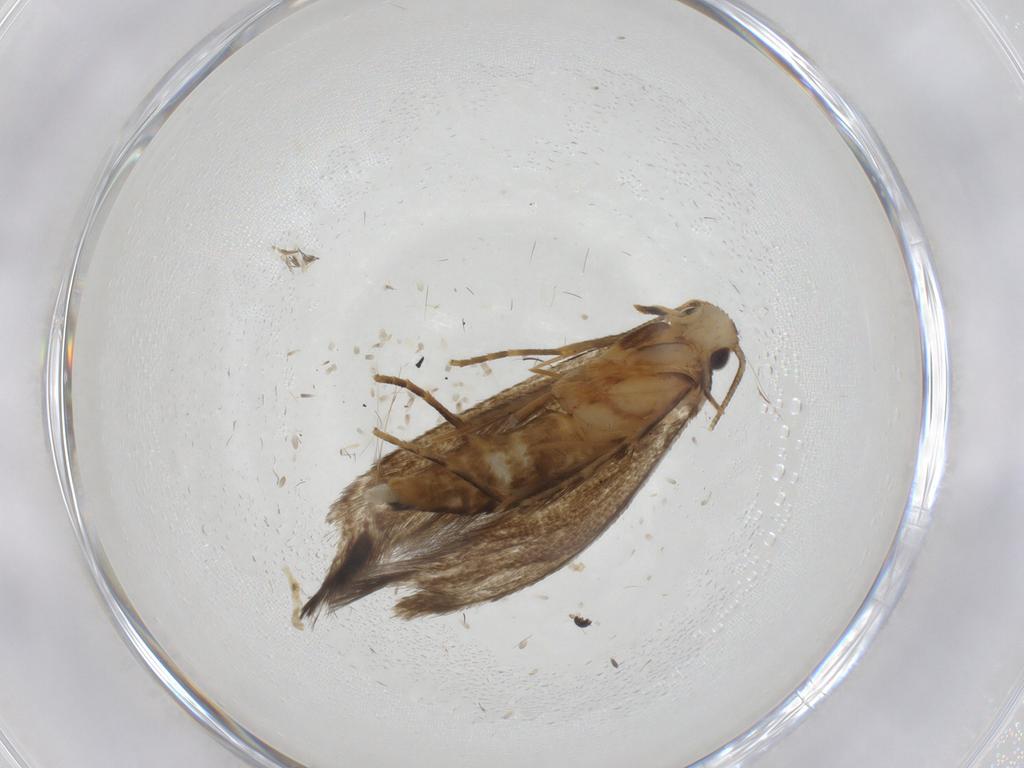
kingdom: Animalia
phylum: Arthropoda
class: Insecta
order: Lepidoptera
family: Tineidae
